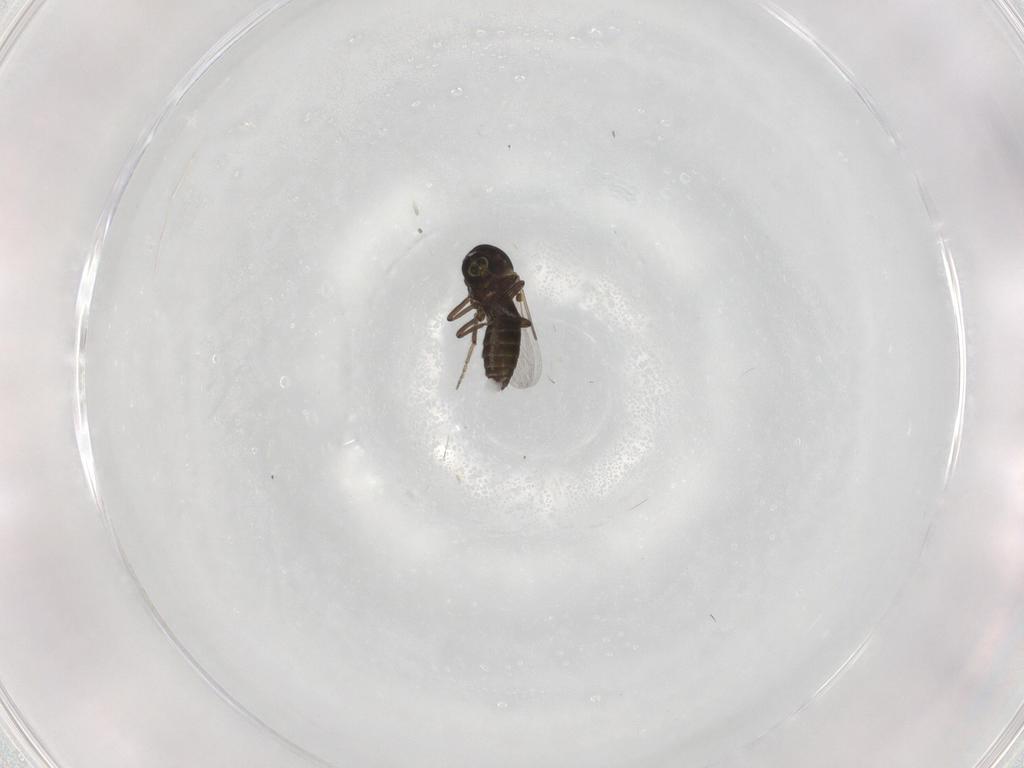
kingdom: Animalia
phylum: Arthropoda
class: Insecta
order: Diptera
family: Ceratopogonidae
